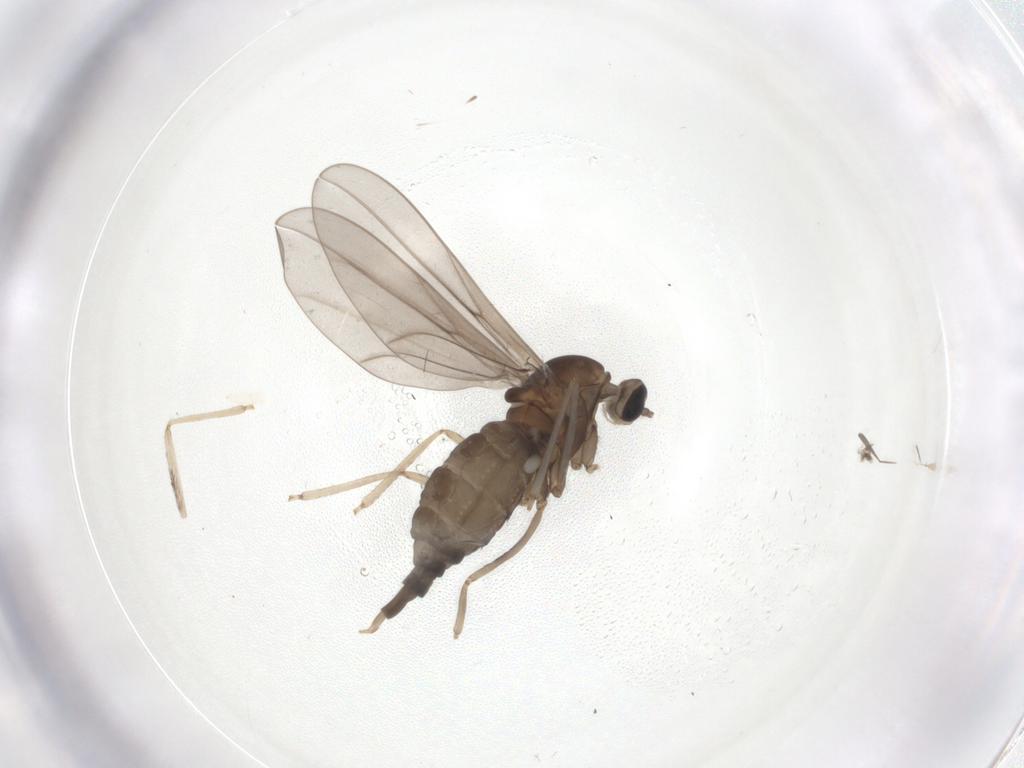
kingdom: Animalia
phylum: Arthropoda
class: Insecta
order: Diptera
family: Cecidomyiidae
